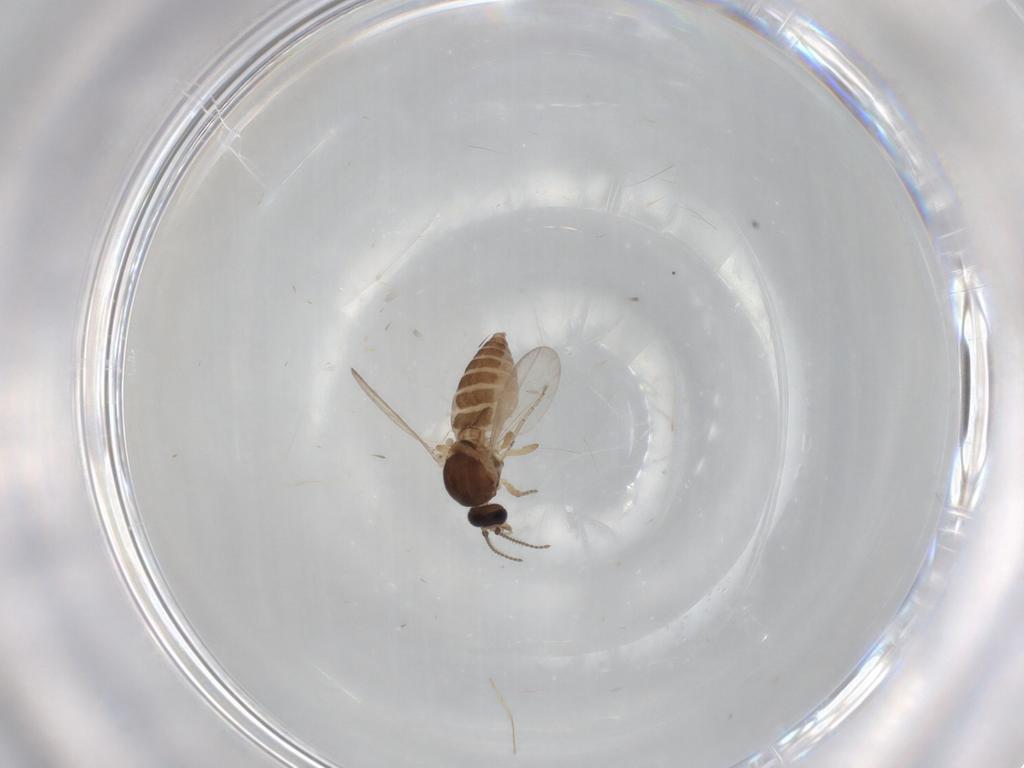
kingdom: Animalia
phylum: Arthropoda
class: Insecta
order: Diptera
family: Ceratopogonidae
